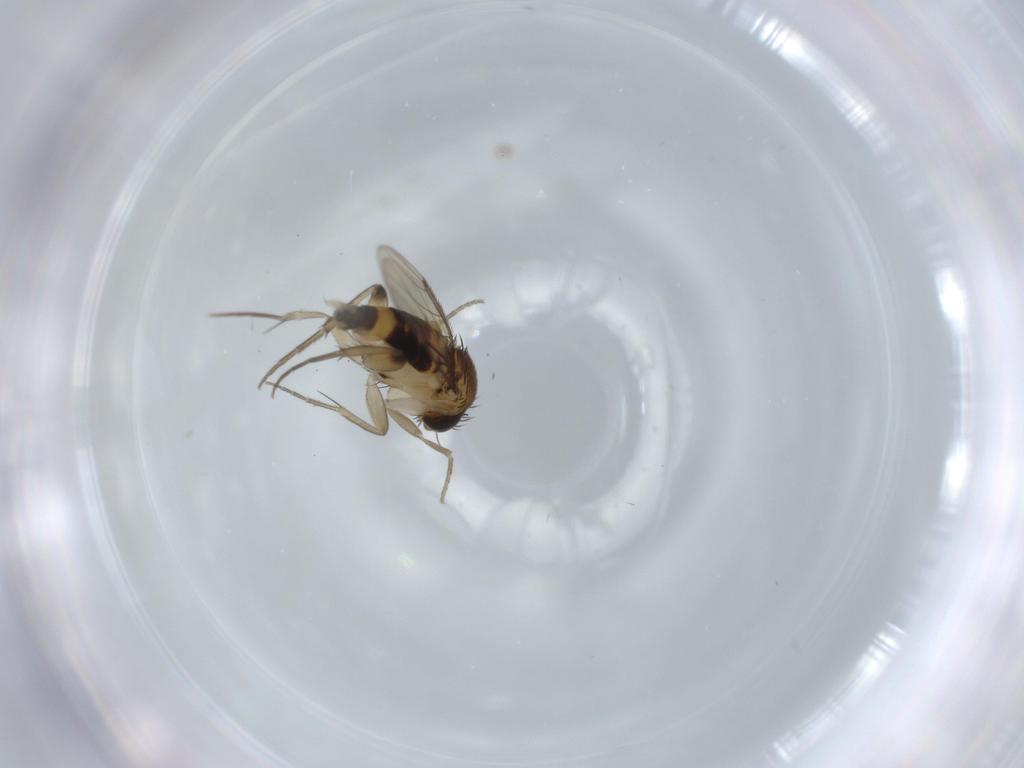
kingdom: Animalia
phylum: Arthropoda
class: Insecta
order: Diptera
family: Phoridae
